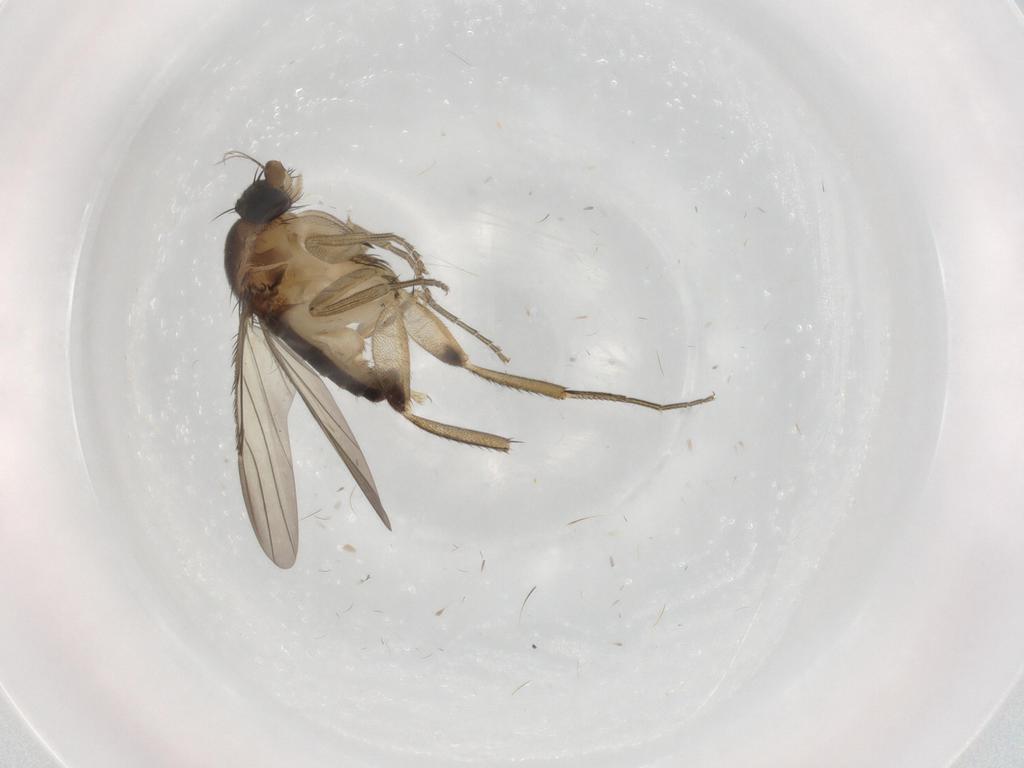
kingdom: Animalia
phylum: Arthropoda
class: Insecta
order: Diptera
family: Phoridae
